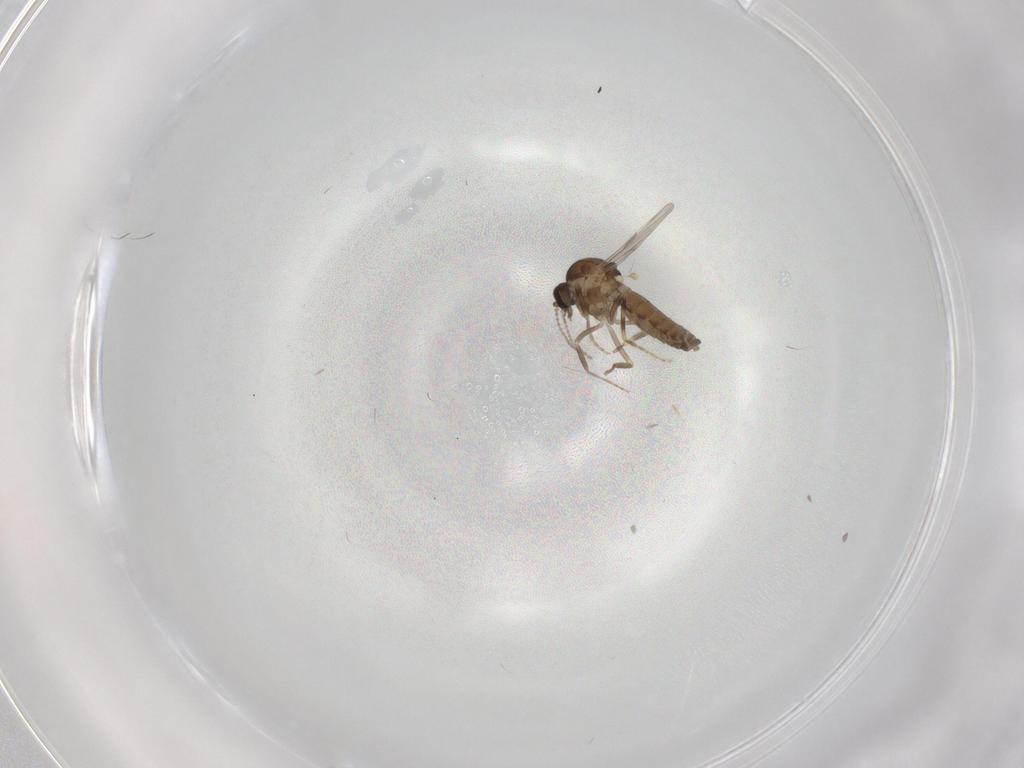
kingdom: Animalia
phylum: Arthropoda
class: Insecta
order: Diptera
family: Ceratopogonidae
